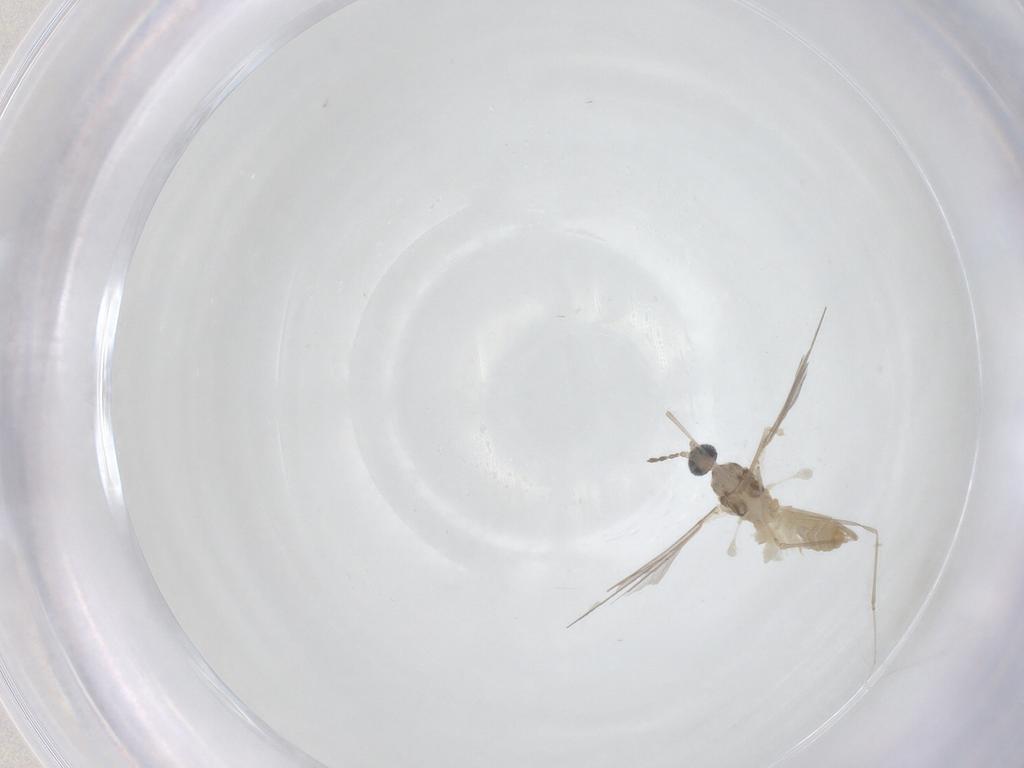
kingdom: Animalia
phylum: Arthropoda
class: Insecta
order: Diptera
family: Cecidomyiidae
